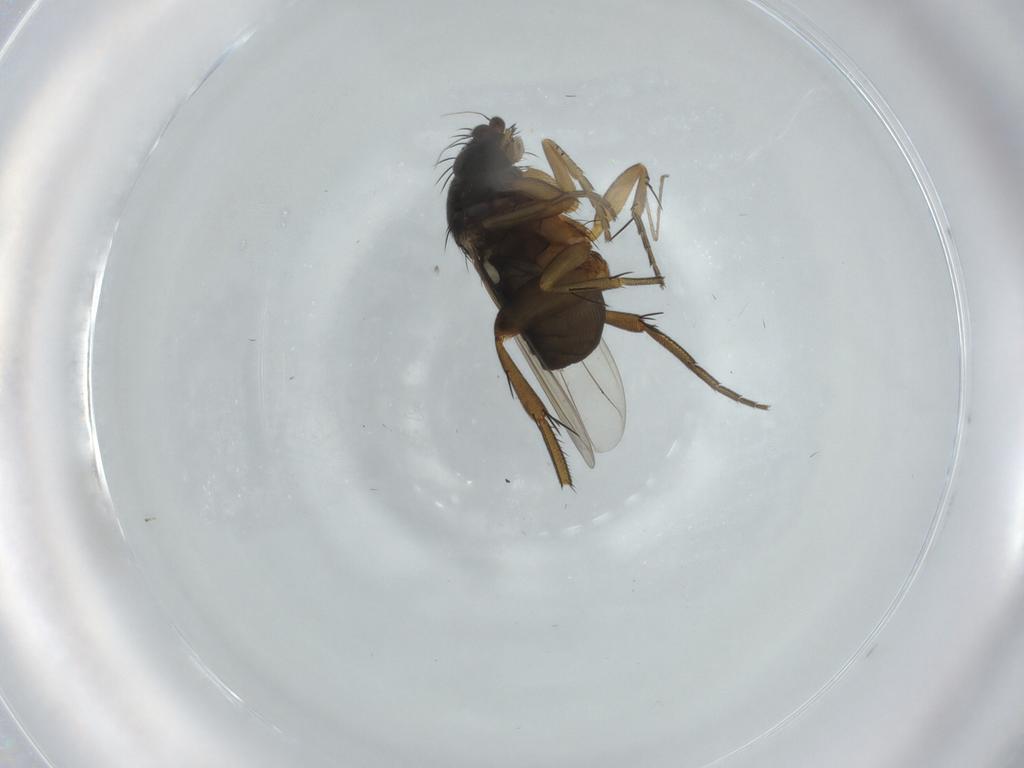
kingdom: Animalia
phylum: Arthropoda
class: Insecta
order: Diptera
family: Phoridae
